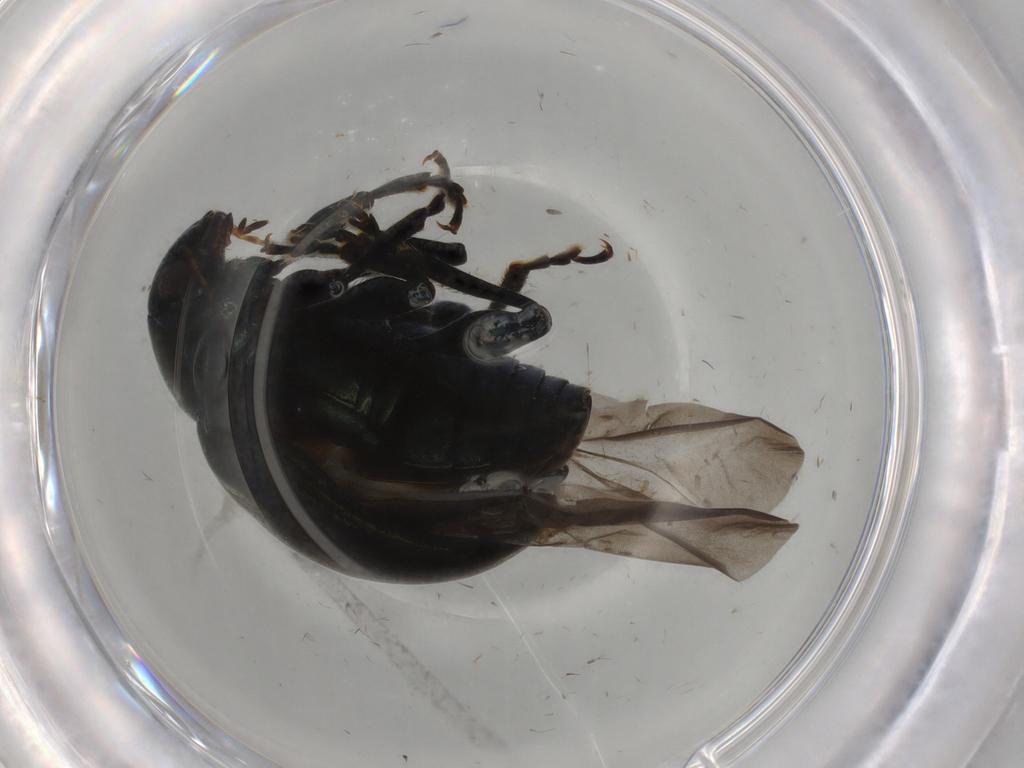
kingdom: Animalia
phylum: Arthropoda
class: Insecta
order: Coleoptera
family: Chrysomelidae
